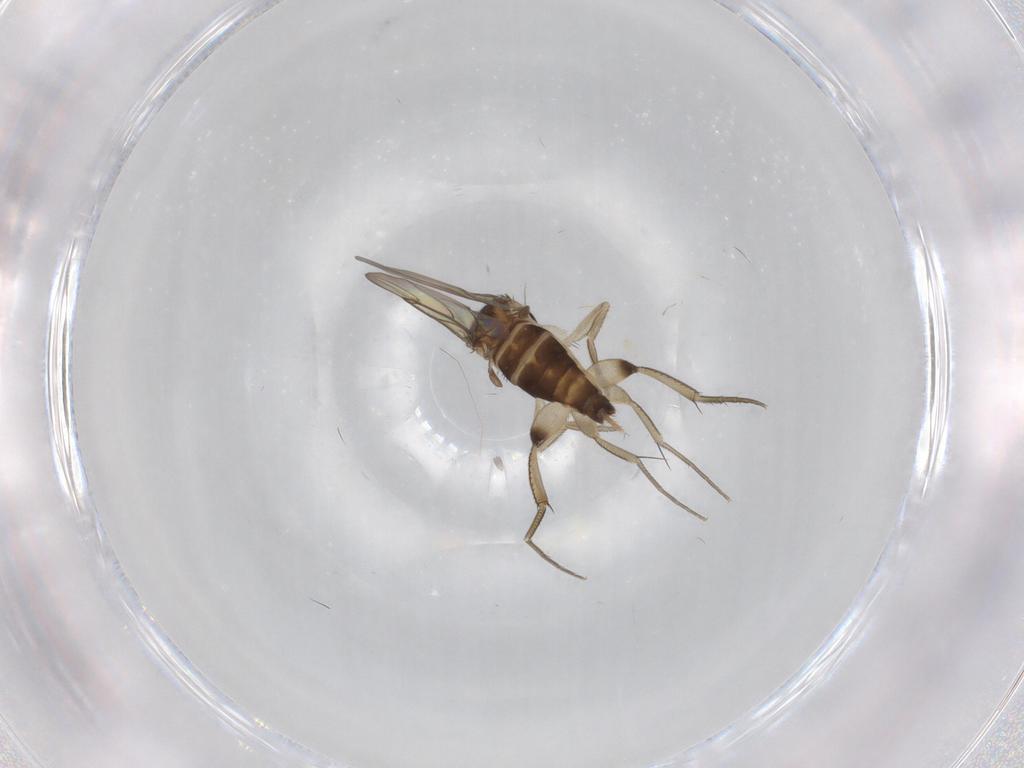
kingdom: Animalia
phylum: Arthropoda
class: Insecta
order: Diptera
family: Phoridae
